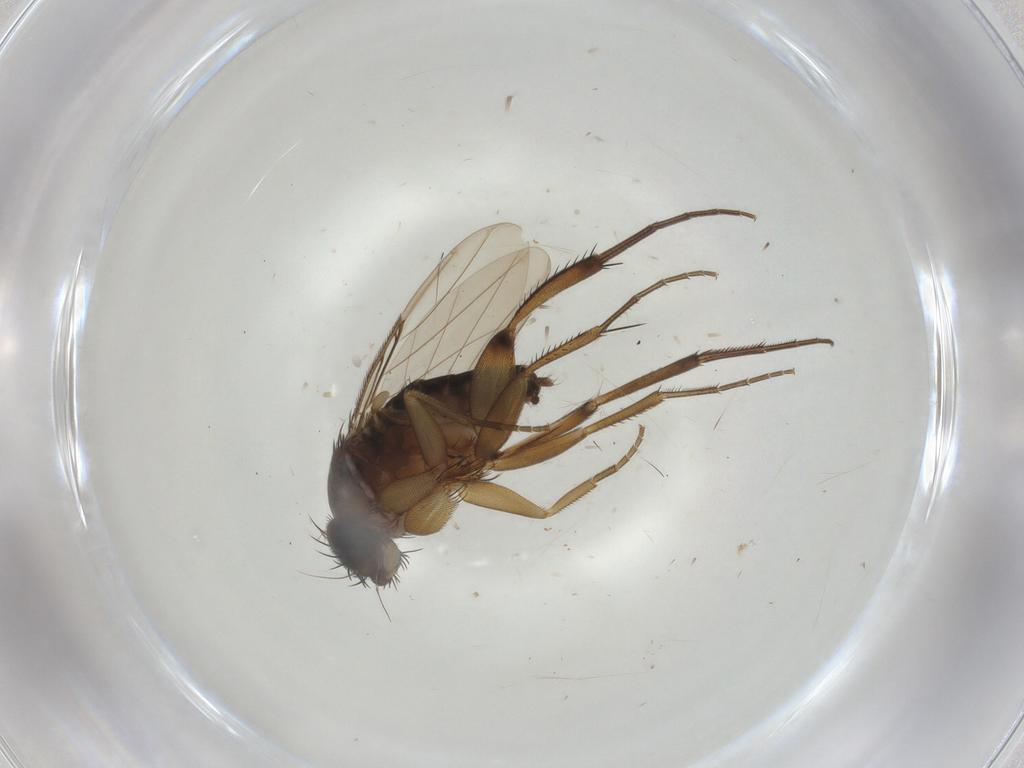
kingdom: Animalia
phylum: Arthropoda
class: Insecta
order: Diptera
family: Phoridae
